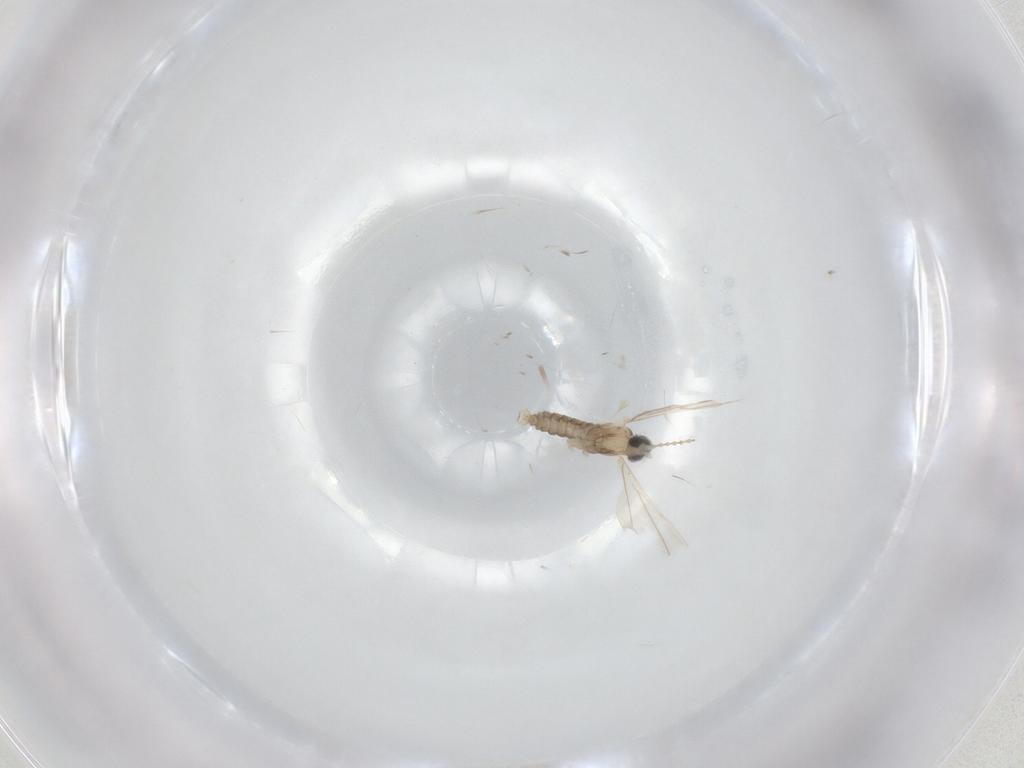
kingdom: Animalia
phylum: Arthropoda
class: Insecta
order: Diptera
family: Cecidomyiidae
